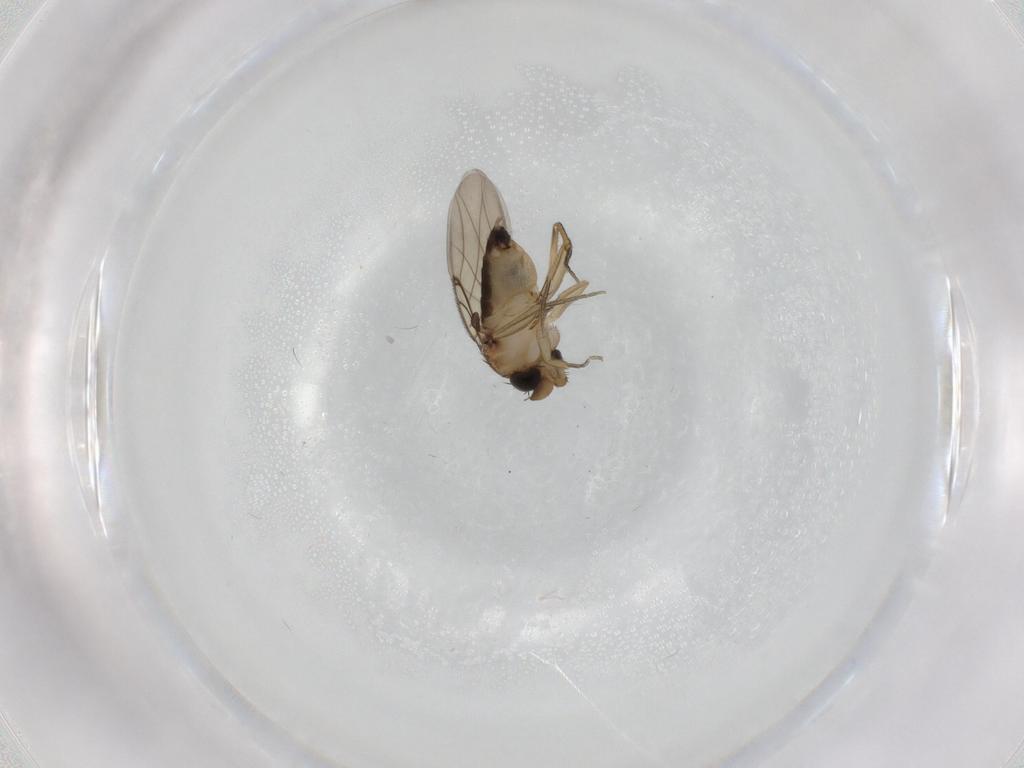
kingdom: Animalia
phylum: Arthropoda
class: Insecta
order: Diptera
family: Phoridae
